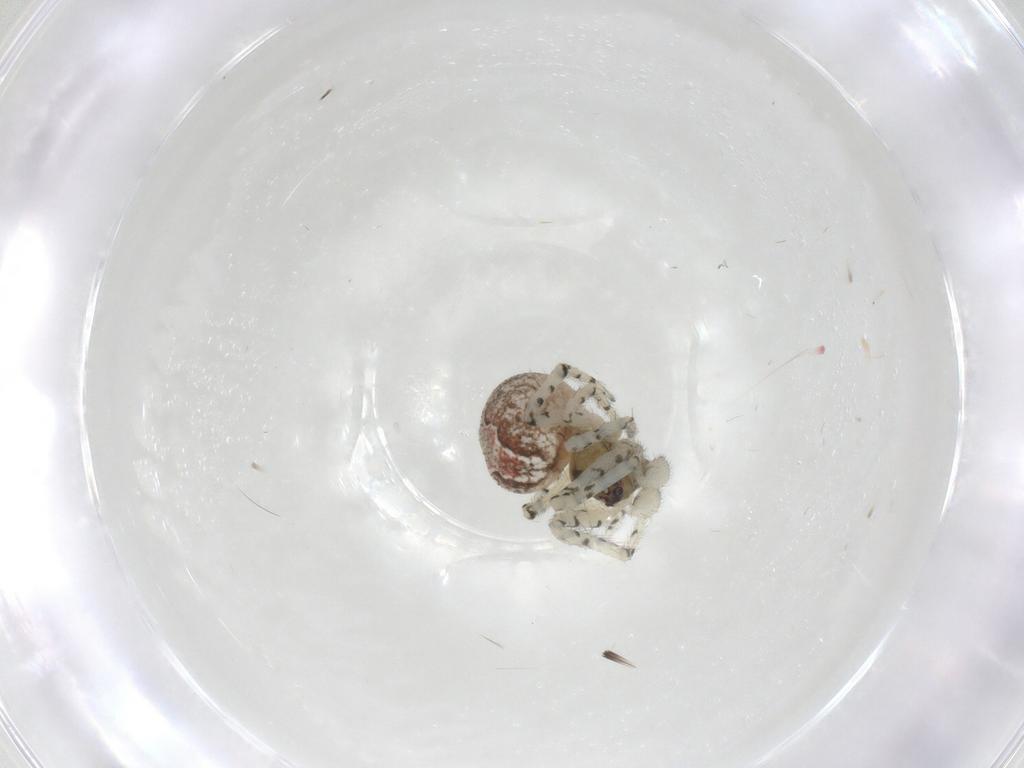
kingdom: Animalia
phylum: Arthropoda
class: Arachnida
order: Araneae
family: Theridiidae
